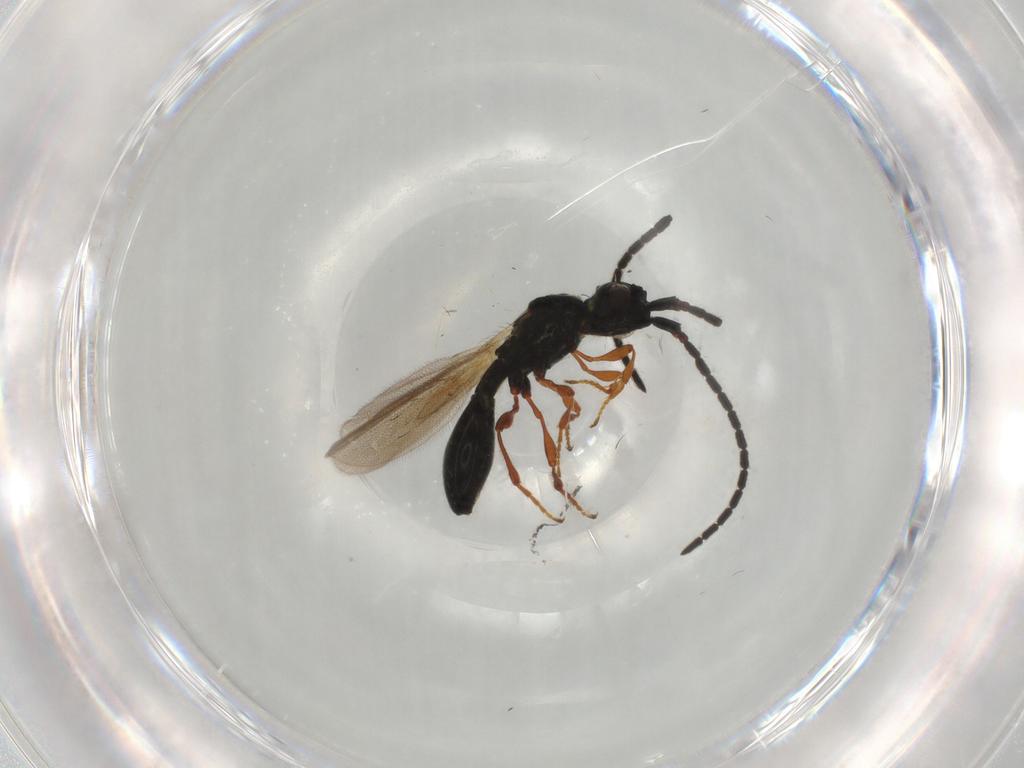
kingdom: Animalia
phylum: Arthropoda
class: Insecta
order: Hymenoptera
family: Diapriidae
